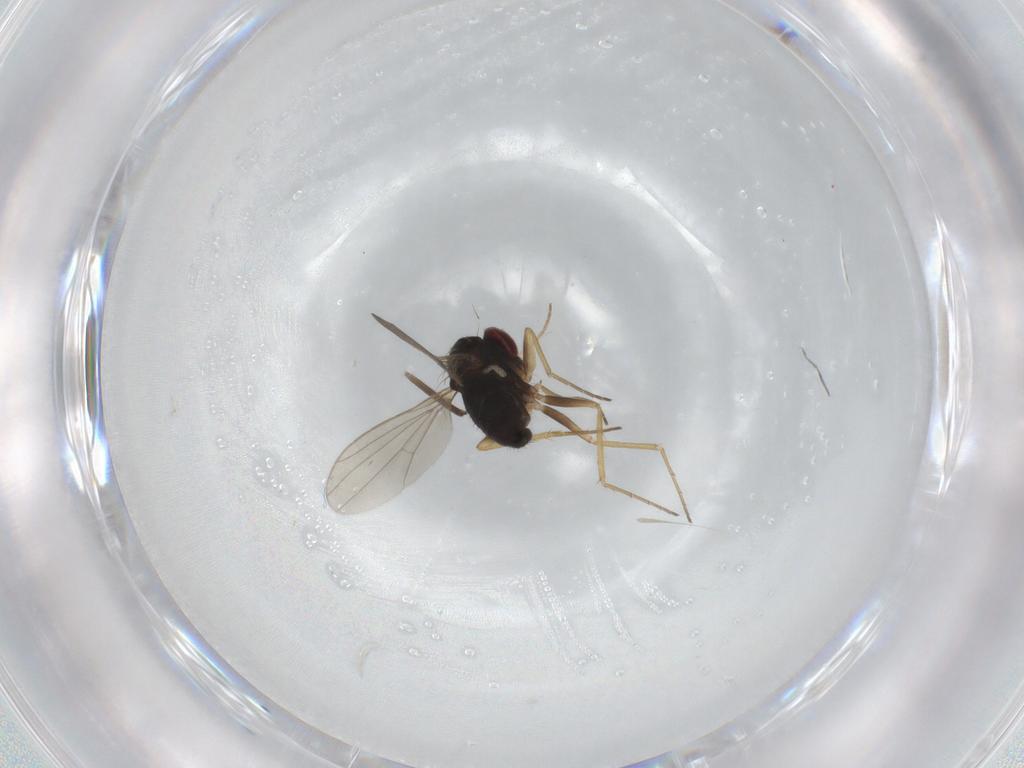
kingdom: Animalia
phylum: Arthropoda
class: Insecta
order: Diptera
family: Chironomidae
